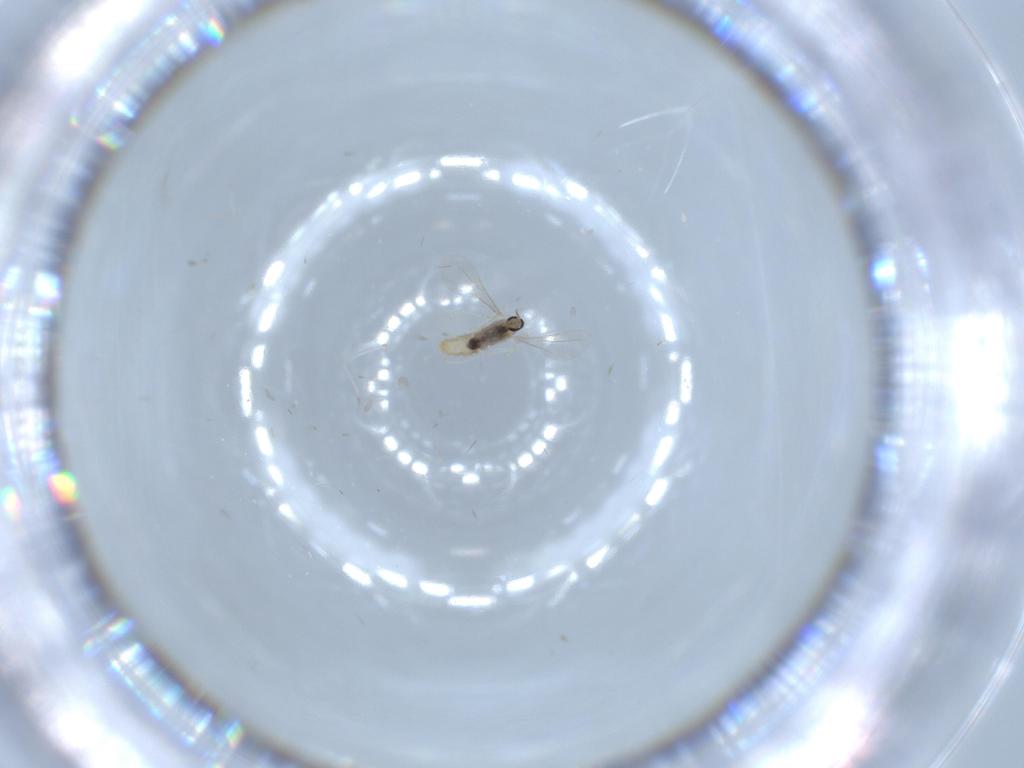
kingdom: Animalia
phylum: Arthropoda
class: Insecta
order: Diptera
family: Cecidomyiidae
